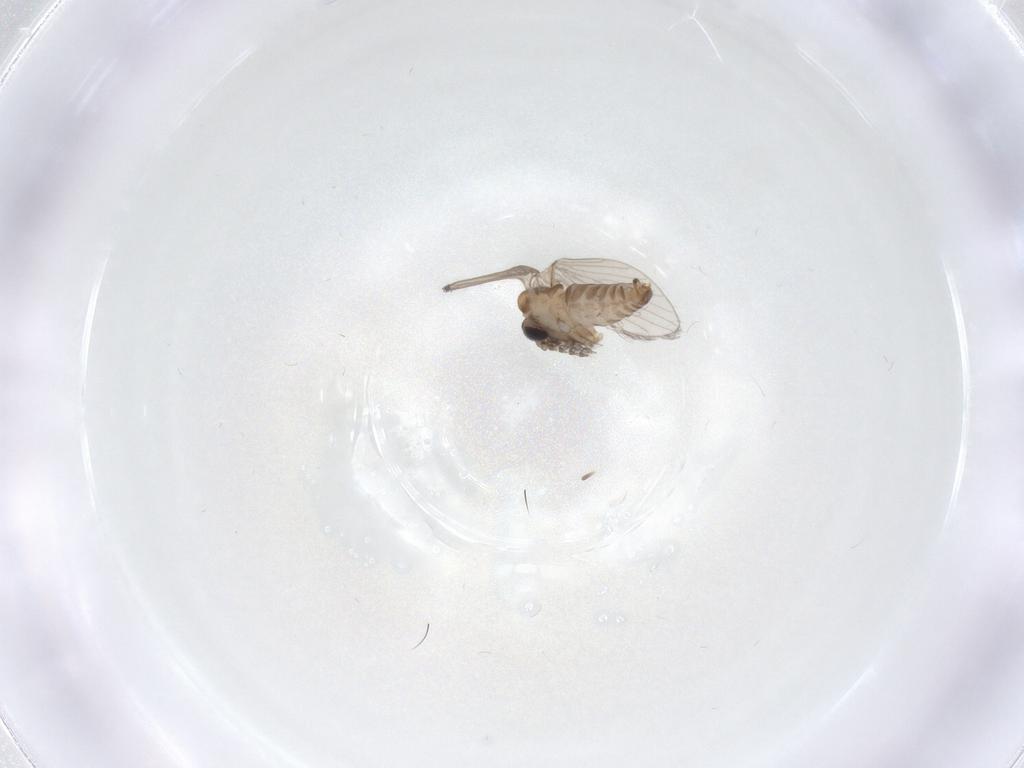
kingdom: Animalia
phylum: Arthropoda
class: Insecta
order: Diptera
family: Psychodidae
